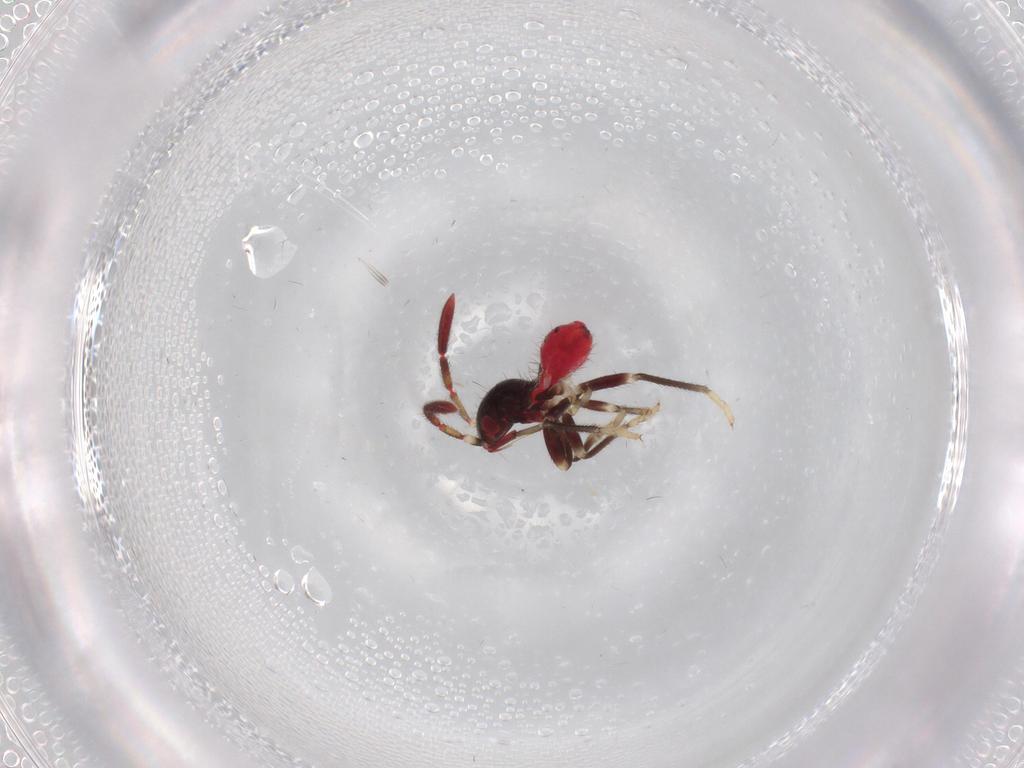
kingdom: Animalia
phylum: Arthropoda
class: Insecta
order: Hemiptera
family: Rhyparochromidae
